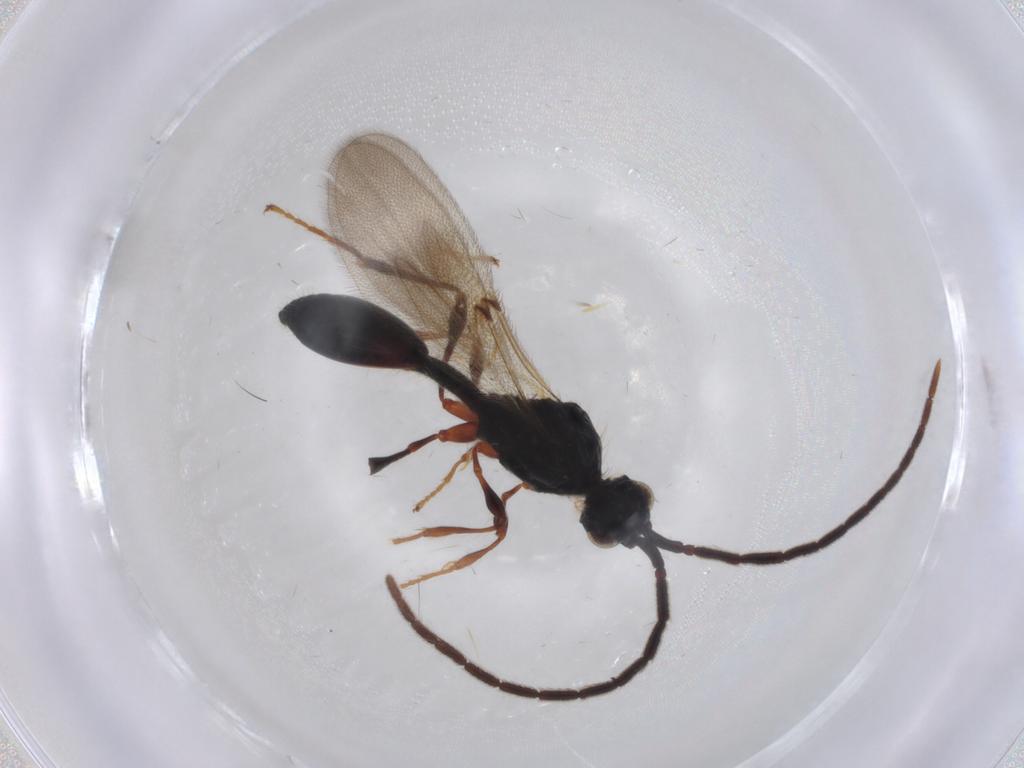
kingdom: Animalia
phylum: Arthropoda
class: Insecta
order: Hymenoptera
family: Diapriidae
